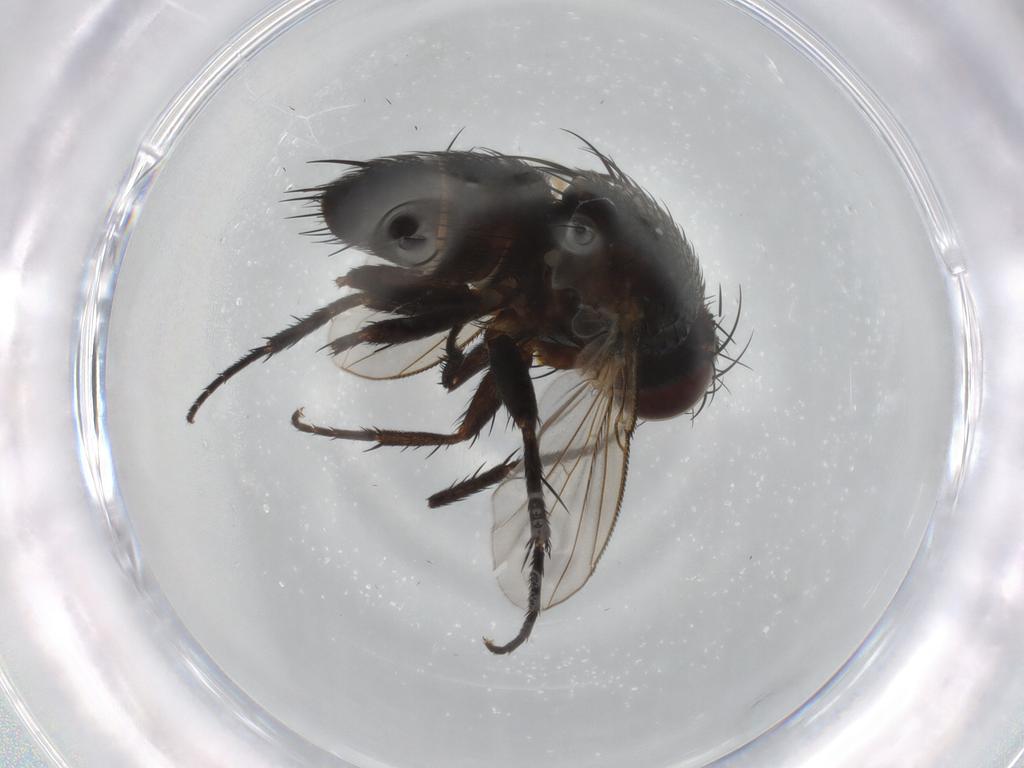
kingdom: Animalia
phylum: Arthropoda
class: Insecta
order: Diptera
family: Tachinidae
